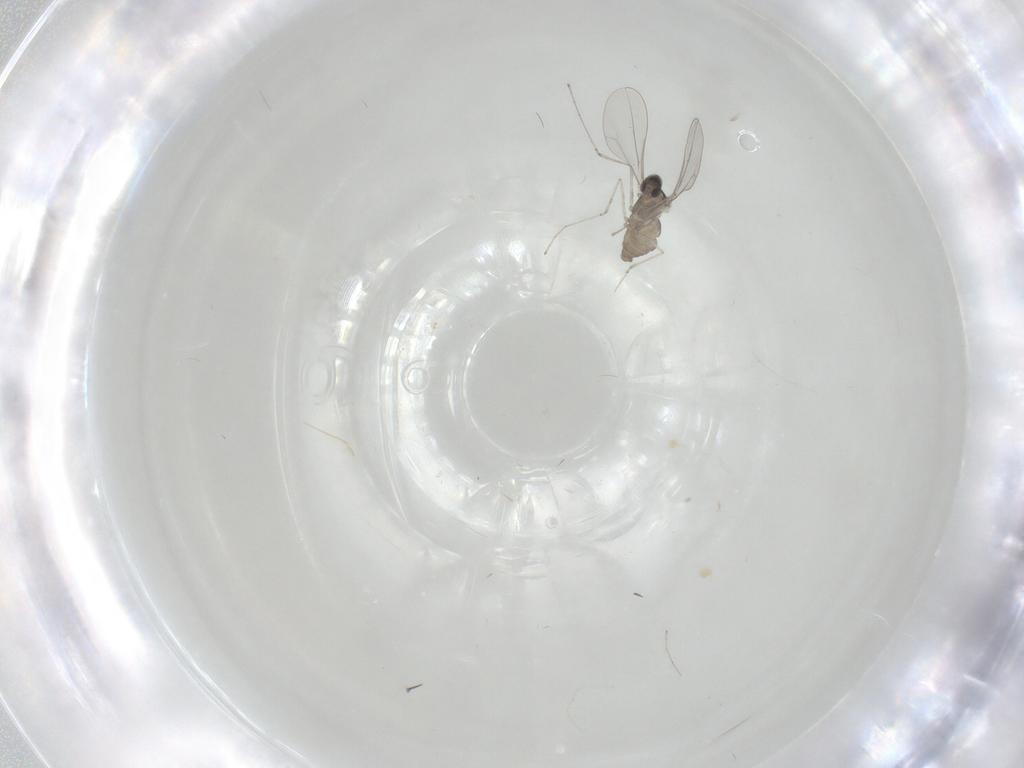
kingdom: Animalia
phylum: Arthropoda
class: Insecta
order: Diptera
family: Cecidomyiidae
